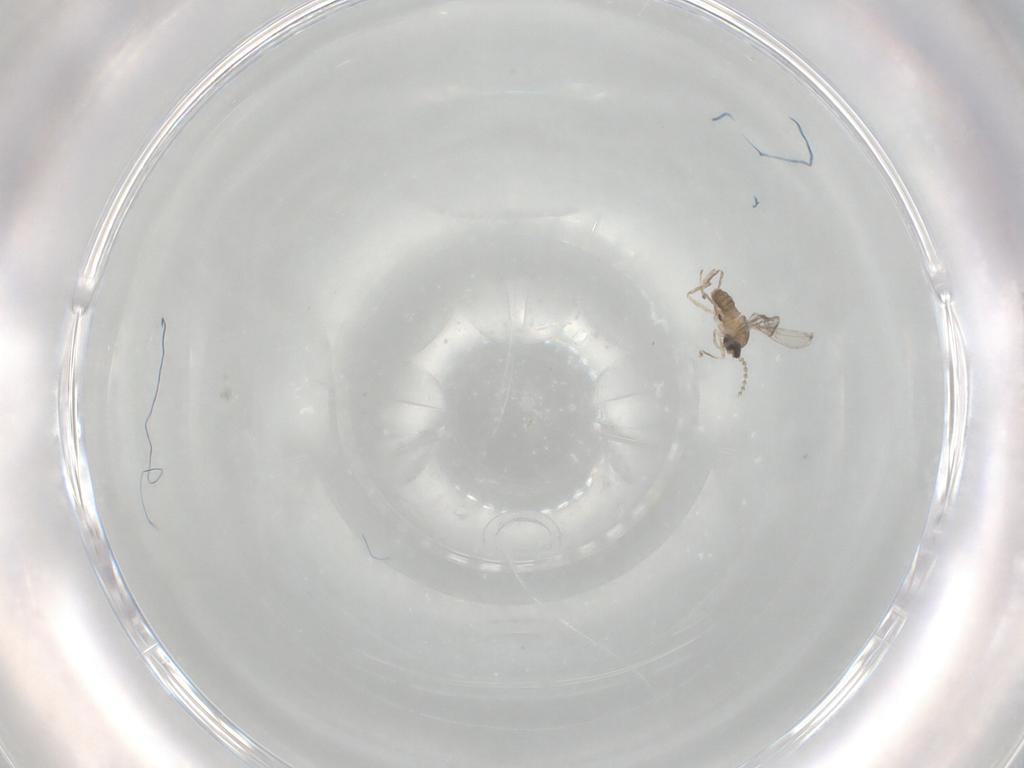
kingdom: Animalia
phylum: Arthropoda
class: Insecta
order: Diptera
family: Cecidomyiidae
